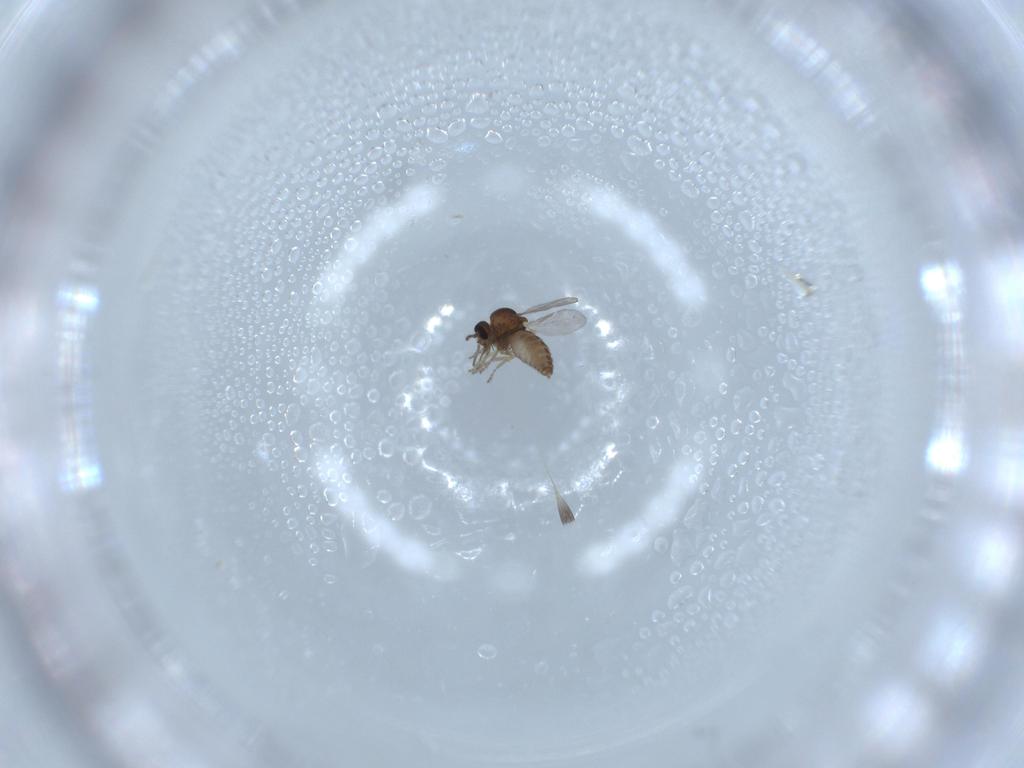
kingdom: Animalia
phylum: Arthropoda
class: Insecta
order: Diptera
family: Ceratopogonidae
